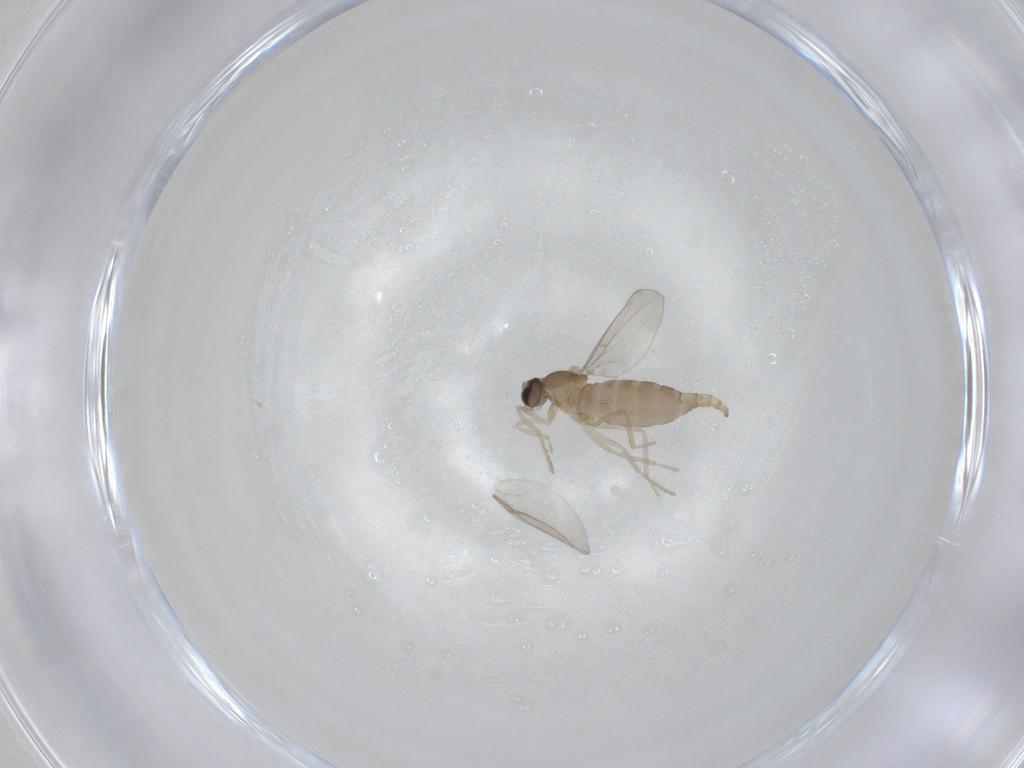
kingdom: Animalia
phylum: Arthropoda
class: Insecta
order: Diptera
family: Cecidomyiidae
